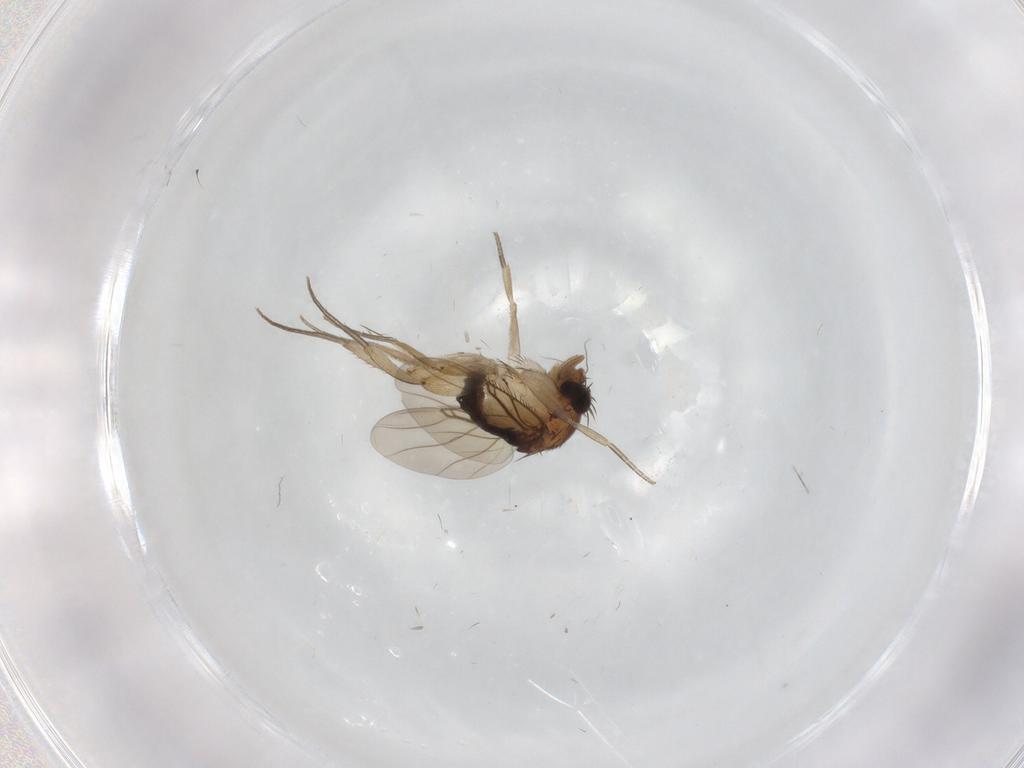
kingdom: Animalia
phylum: Arthropoda
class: Insecta
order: Diptera
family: Phoridae
